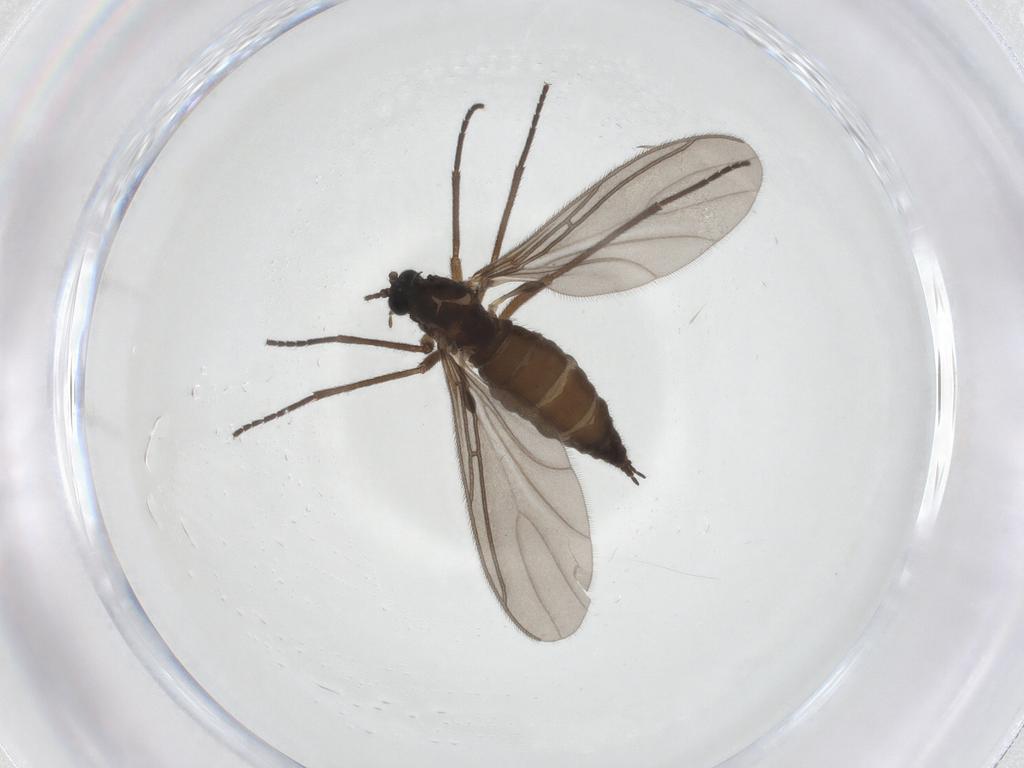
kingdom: Animalia
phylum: Arthropoda
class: Insecta
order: Diptera
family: Sciaridae
